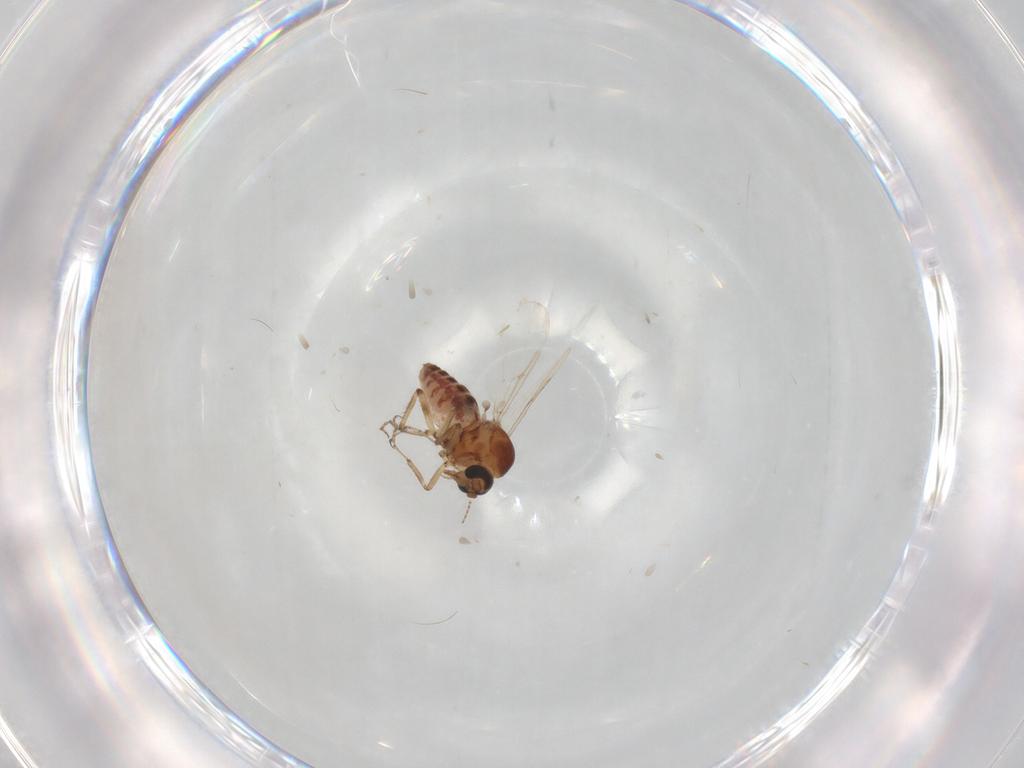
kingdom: Animalia
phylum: Arthropoda
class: Insecta
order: Diptera
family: Ceratopogonidae
